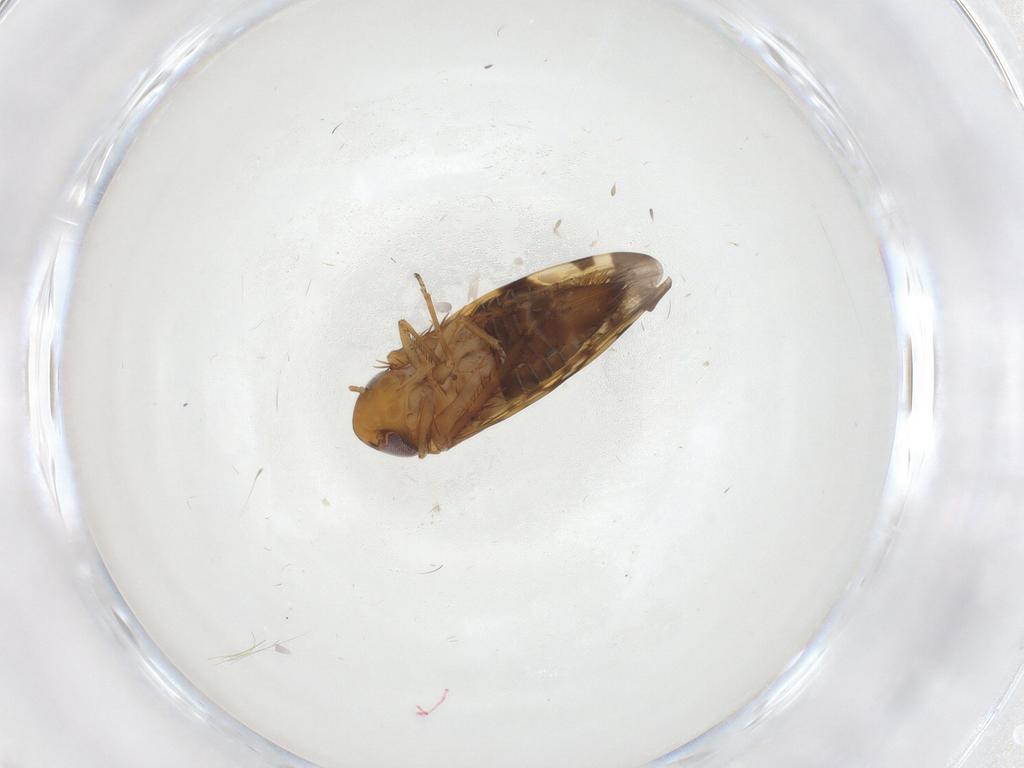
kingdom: Animalia
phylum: Arthropoda
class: Insecta
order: Hemiptera
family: Cicadellidae
